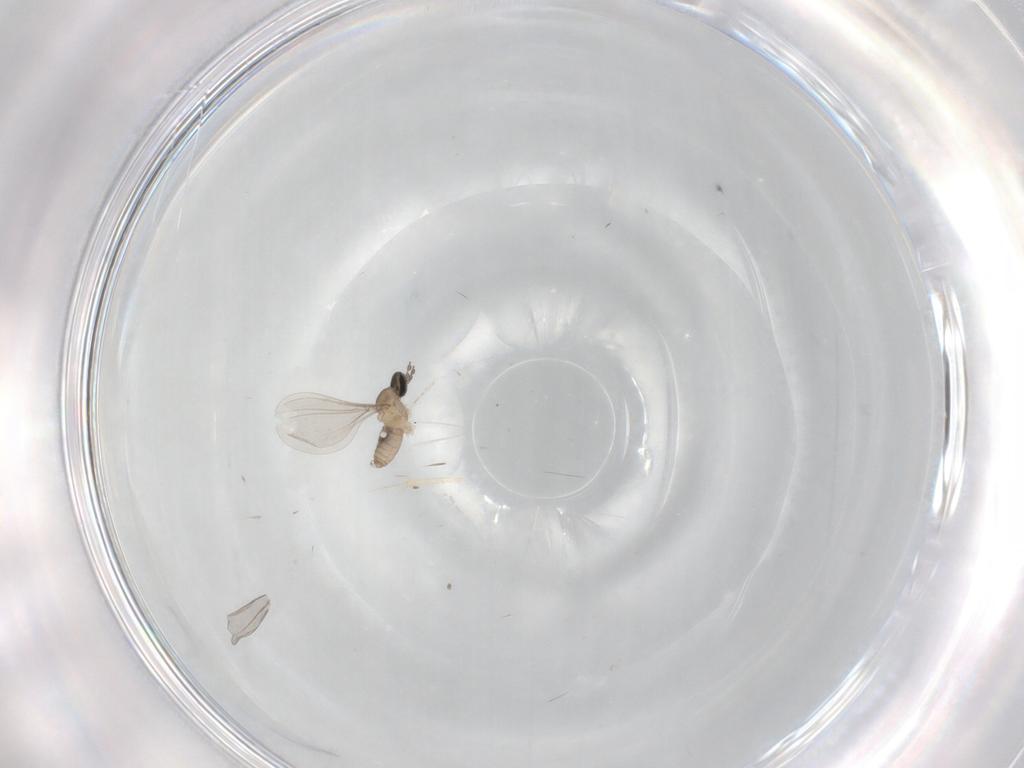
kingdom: Animalia
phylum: Arthropoda
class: Insecta
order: Diptera
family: Cecidomyiidae
